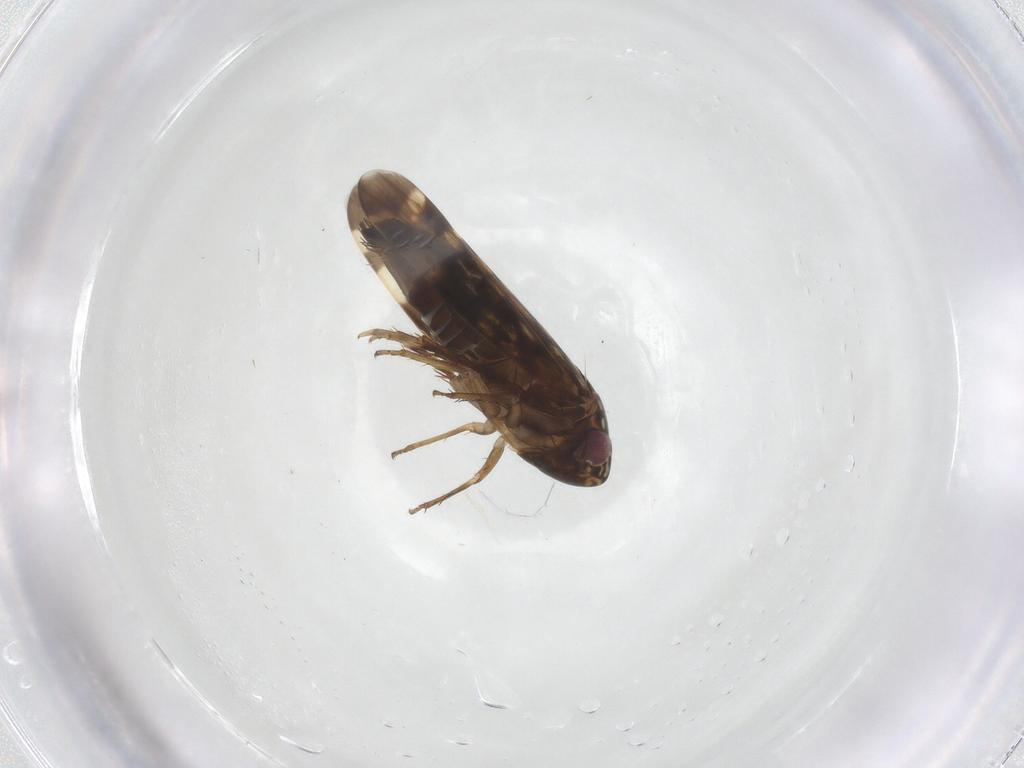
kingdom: Animalia
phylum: Arthropoda
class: Insecta
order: Hemiptera
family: Cicadellidae
